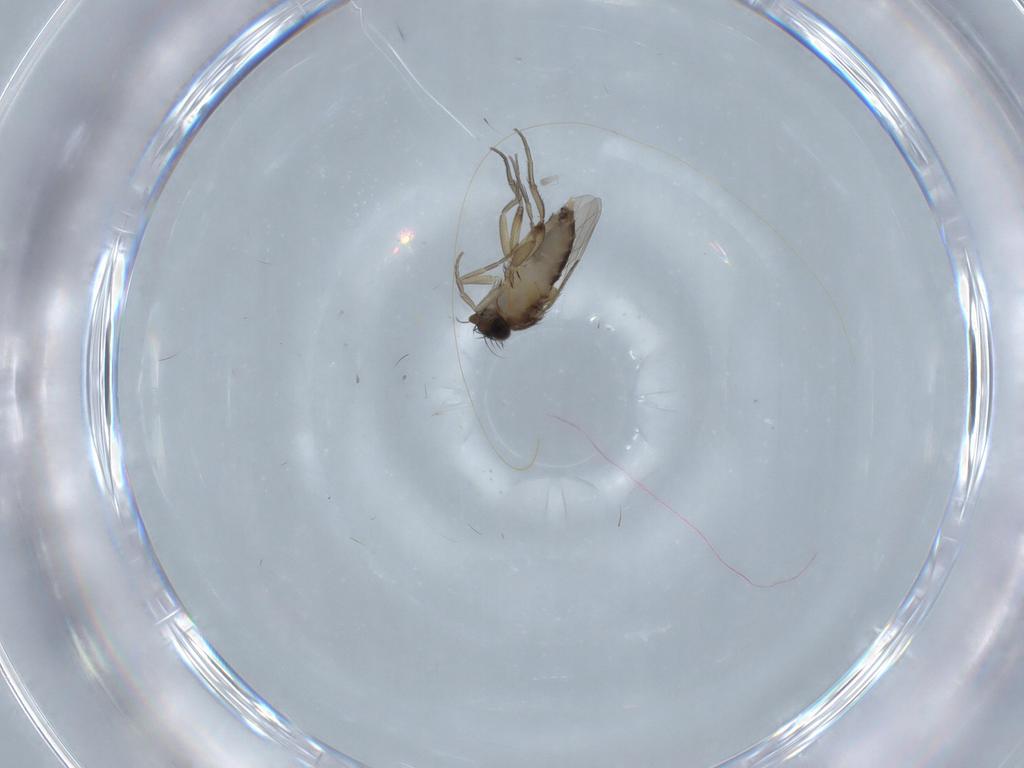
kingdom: Animalia
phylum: Arthropoda
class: Insecta
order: Diptera
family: Phoridae
